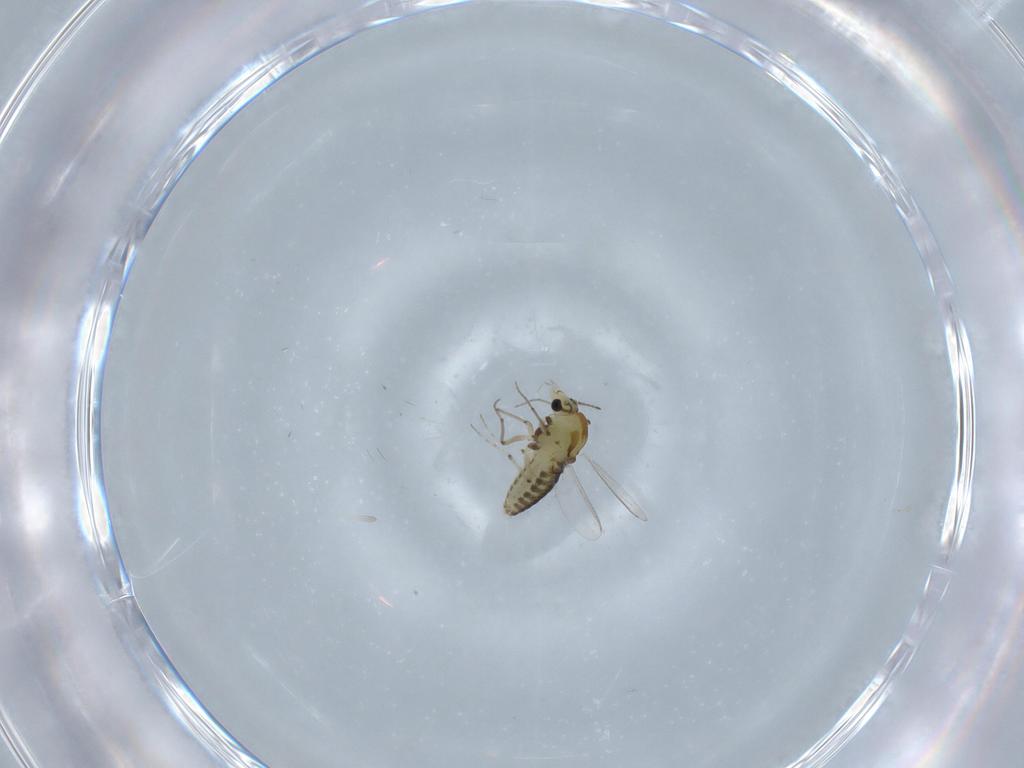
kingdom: Animalia
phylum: Arthropoda
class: Insecta
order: Diptera
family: Chironomidae
